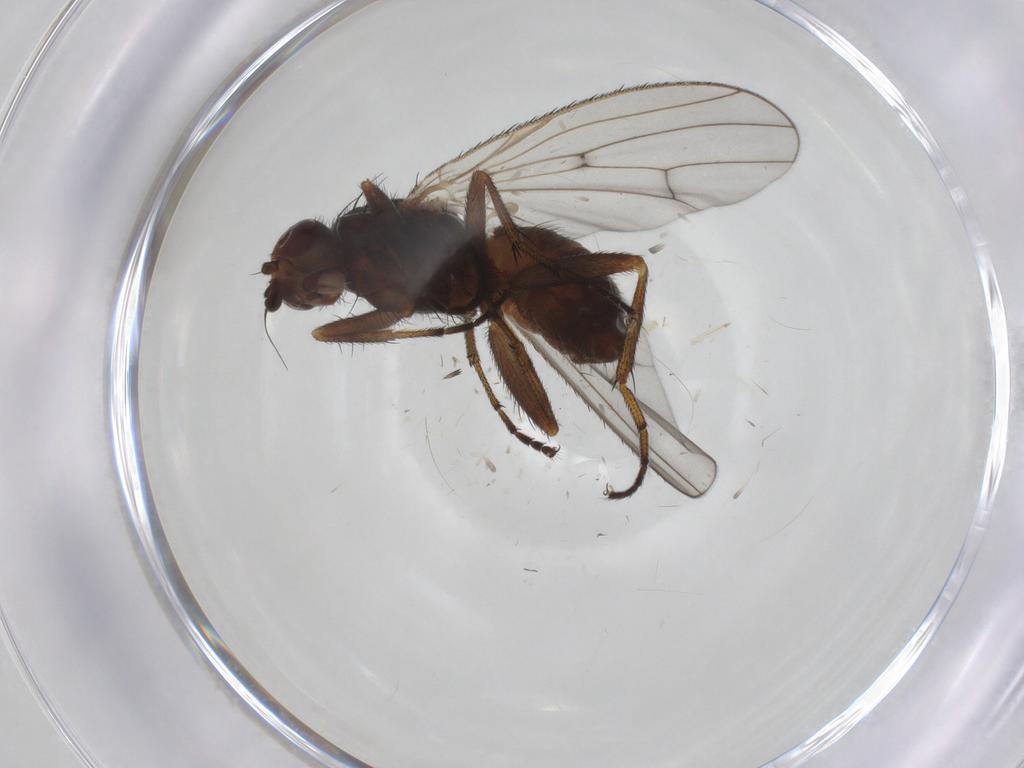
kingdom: Animalia
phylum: Arthropoda
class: Insecta
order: Diptera
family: Heleomyzidae
